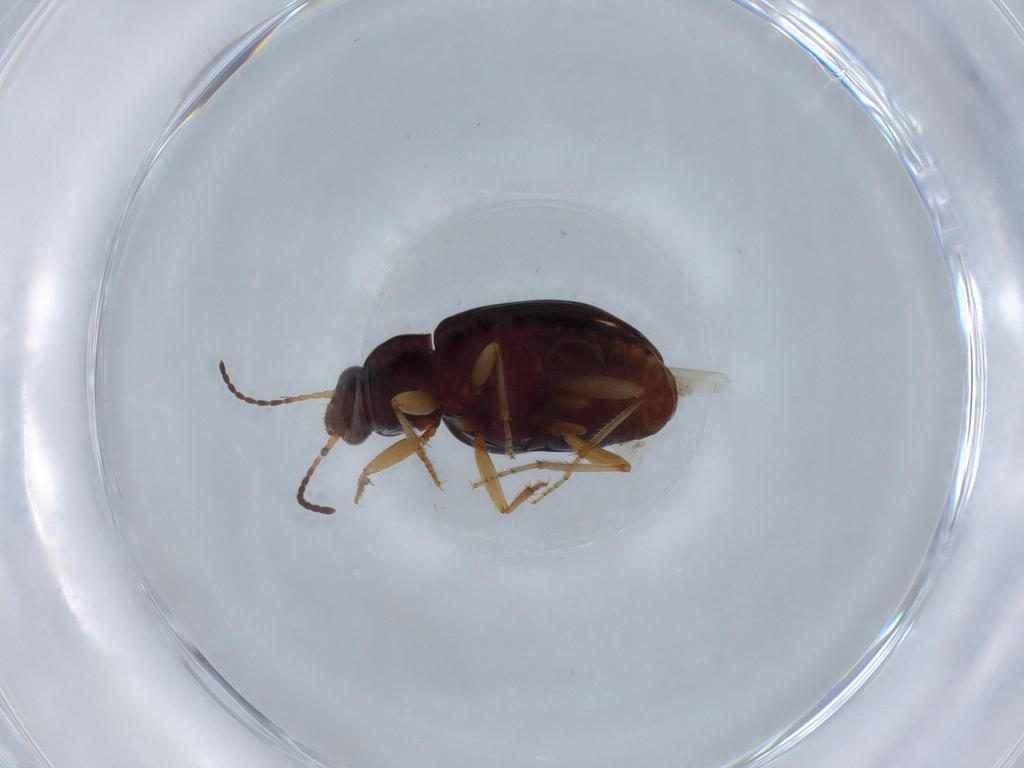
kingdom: Animalia
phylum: Arthropoda
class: Insecta
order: Coleoptera
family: Carabidae
